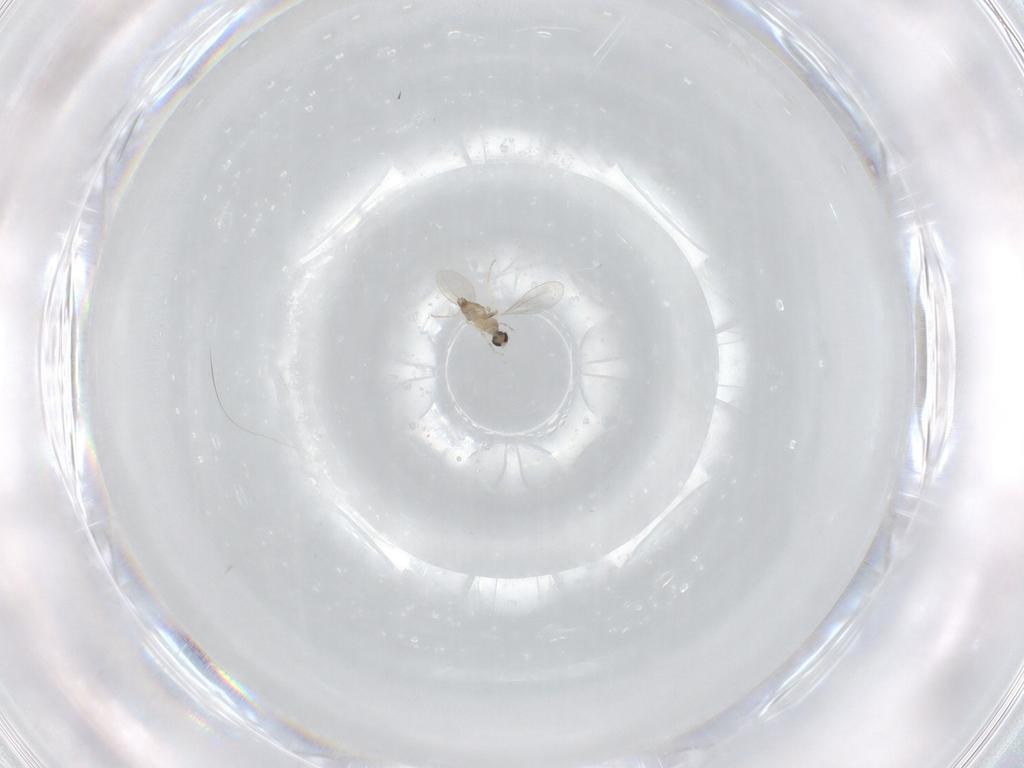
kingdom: Animalia
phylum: Arthropoda
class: Insecta
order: Diptera
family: Cecidomyiidae
